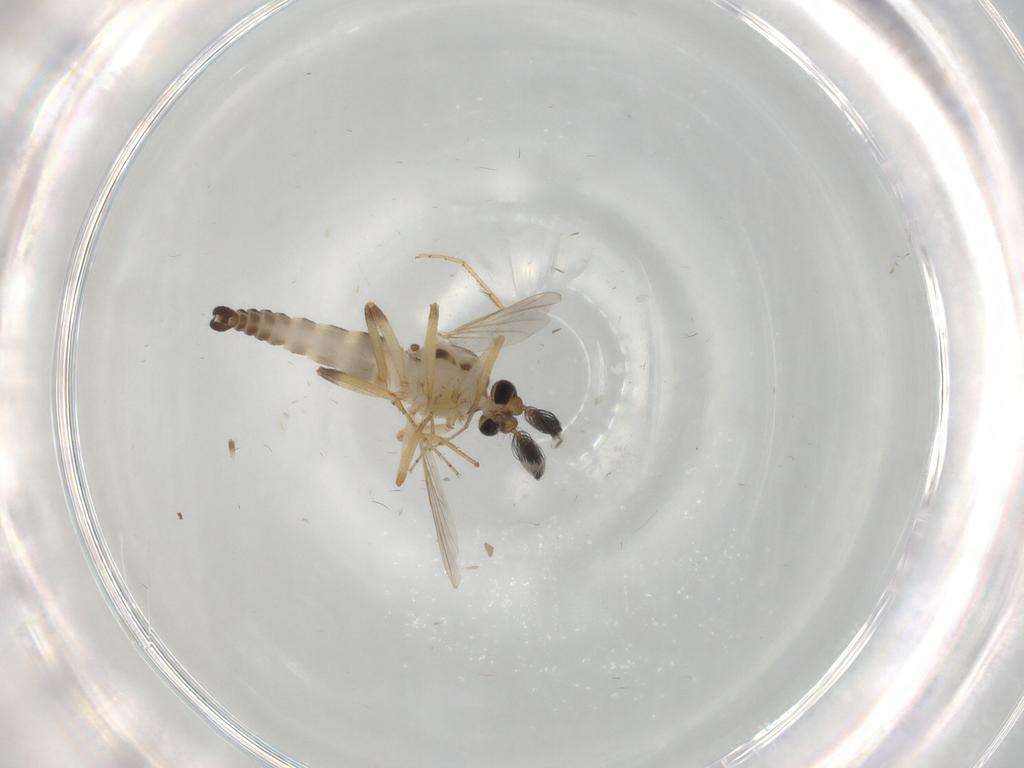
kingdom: Animalia
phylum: Arthropoda
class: Insecta
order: Diptera
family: Ceratopogonidae
